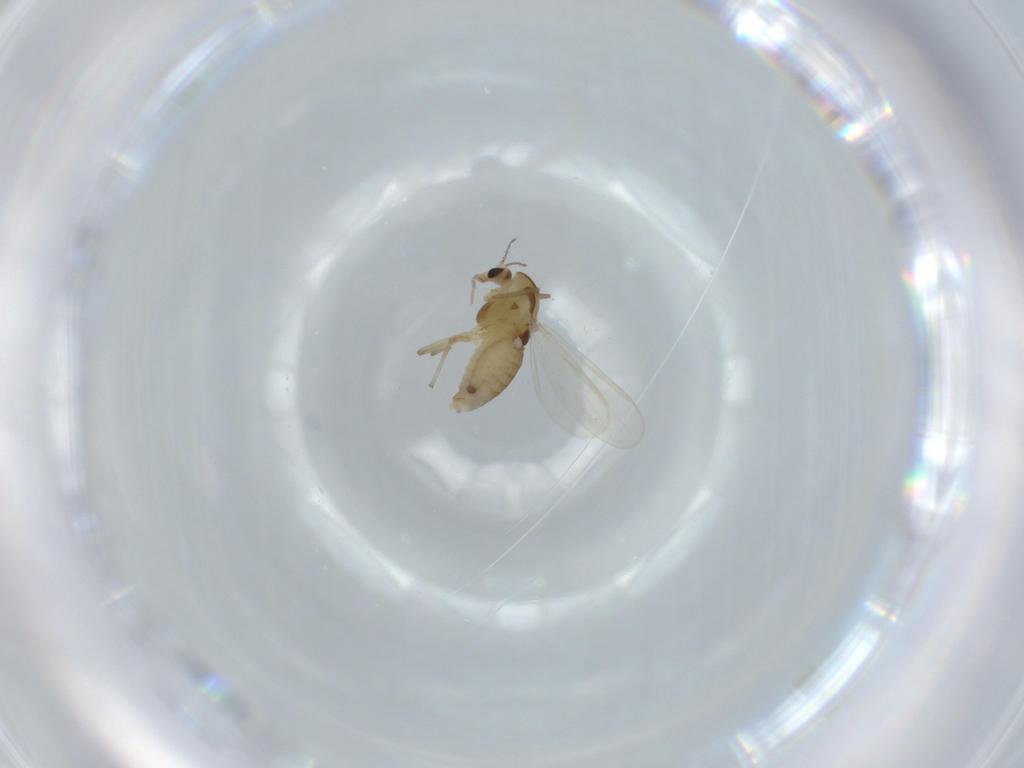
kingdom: Animalia
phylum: Arthropoda
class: Insecta
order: Diptera
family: Chironomidae
